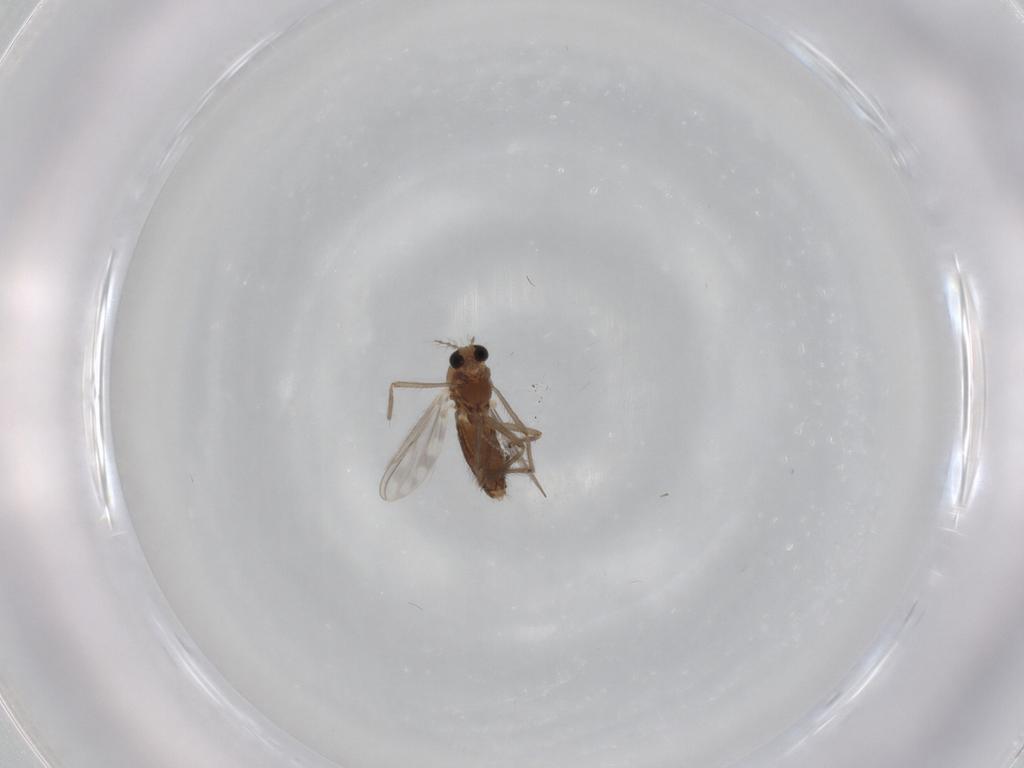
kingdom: Animalia
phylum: Arthropoda
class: Insecta
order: Diptera
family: Chironomidae
